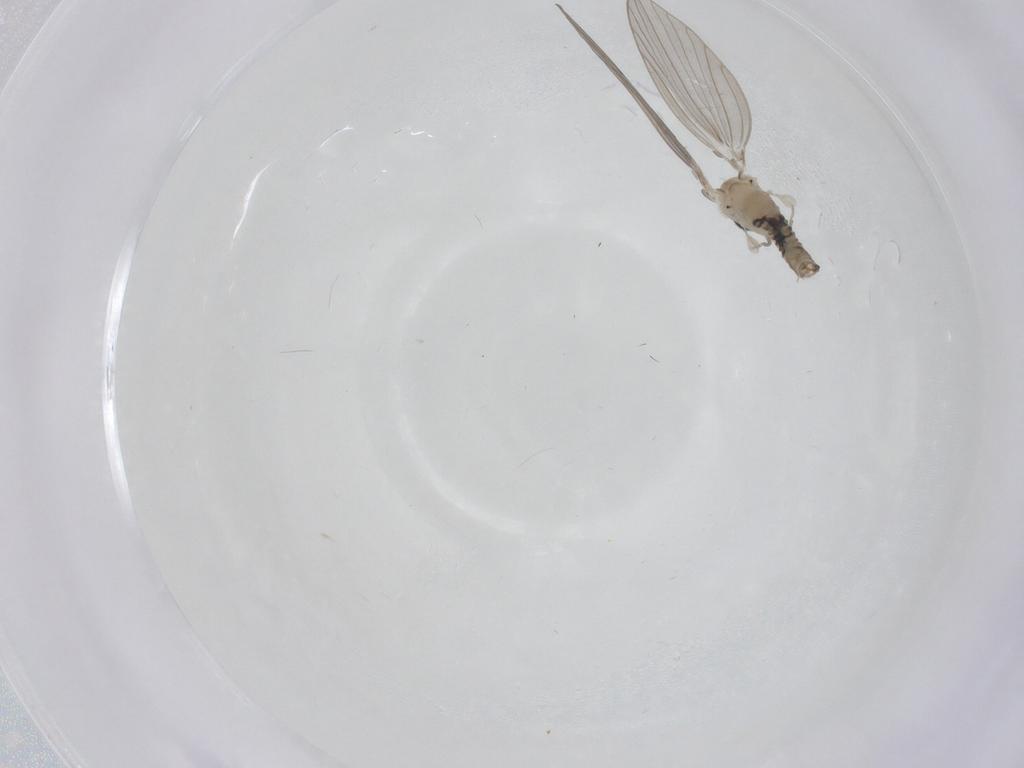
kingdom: Animalia
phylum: Arthropoda
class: Insecta
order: Diptera
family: Psychodidae
